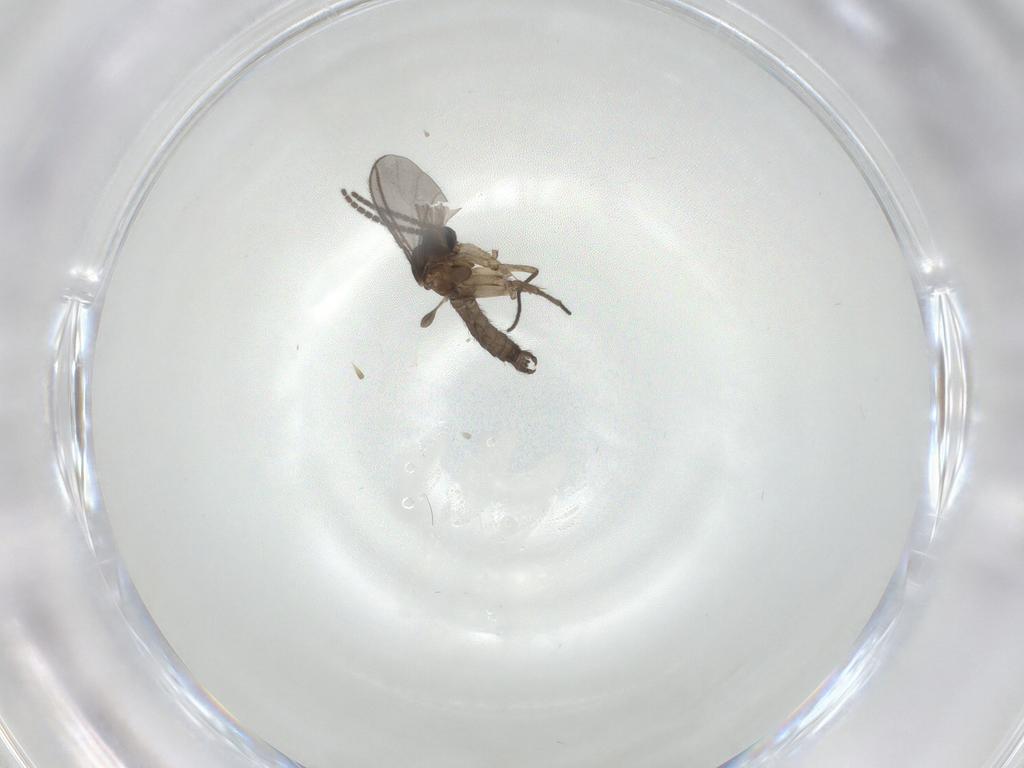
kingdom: Animalia
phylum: Arthropoda
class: Insecta
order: Diptera
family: Sciaridae
